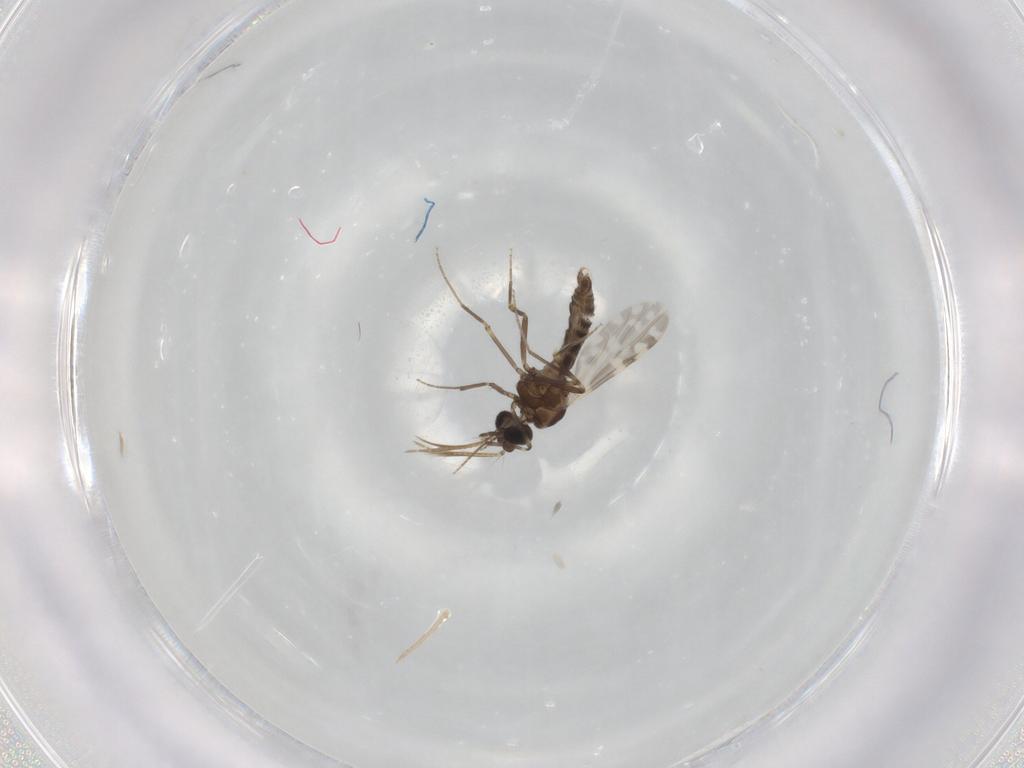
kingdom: Animalia
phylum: Arthropoda
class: Insecta
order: Diptera
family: Ceratopogonidae
